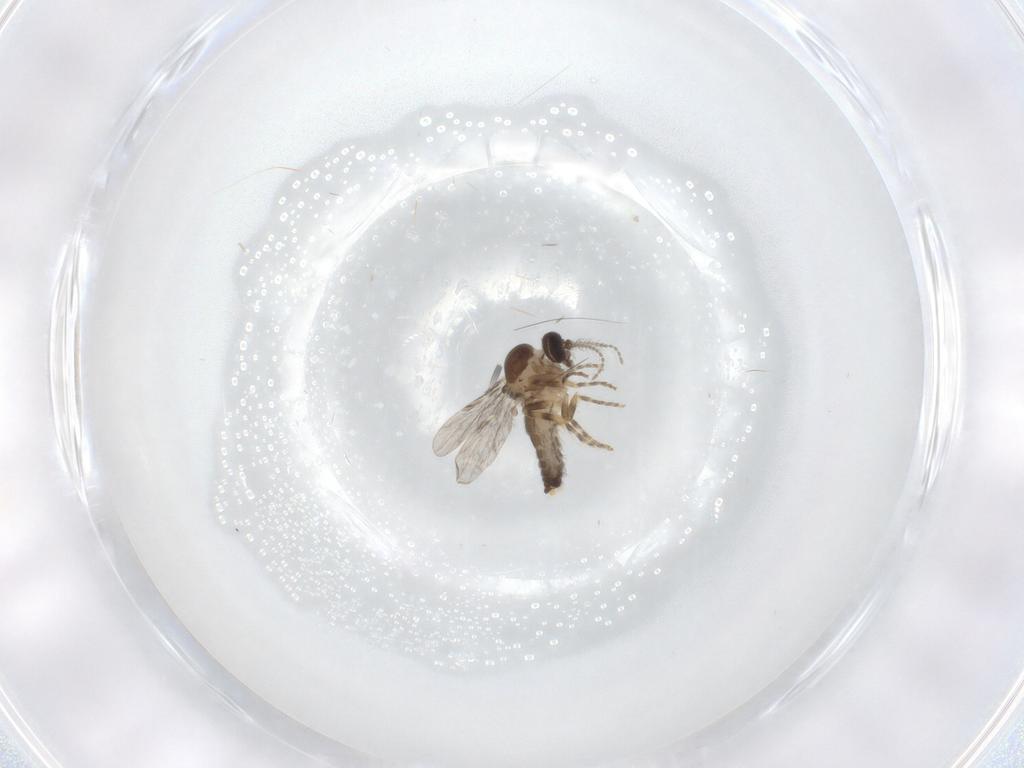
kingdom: Animalia
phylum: Arthropoda
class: Insecta
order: Diptera
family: Ceratopogonidae
